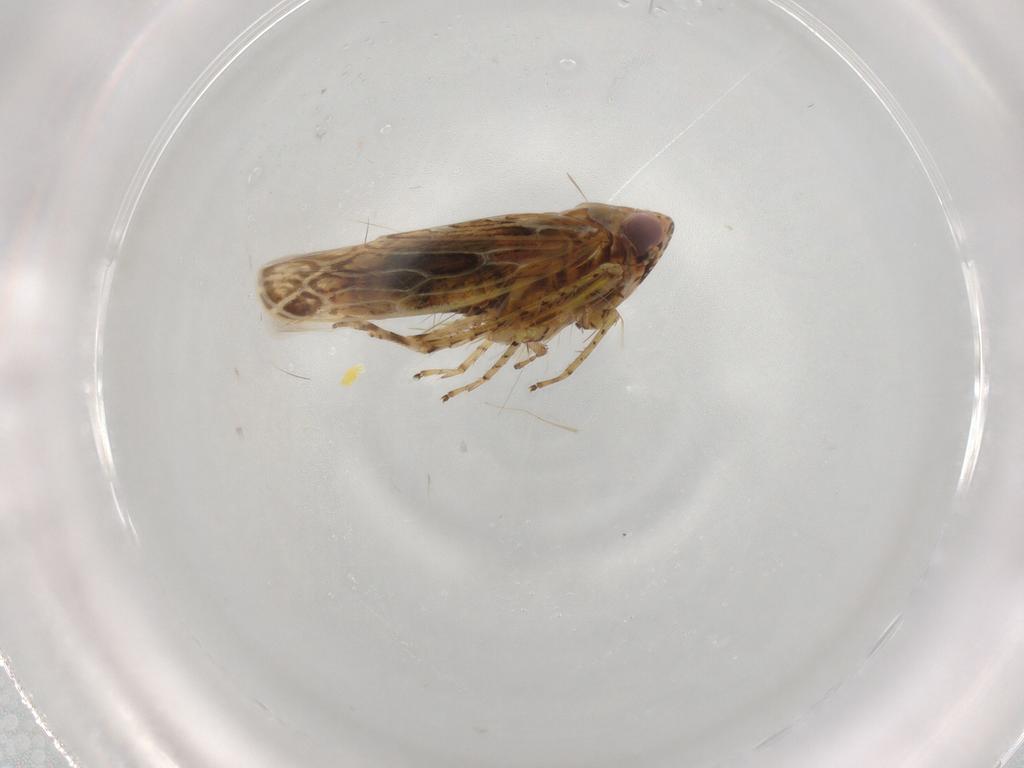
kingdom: Animalia
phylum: Arthropoda
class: Insecta
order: Hemiptera
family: Cicadellidae
